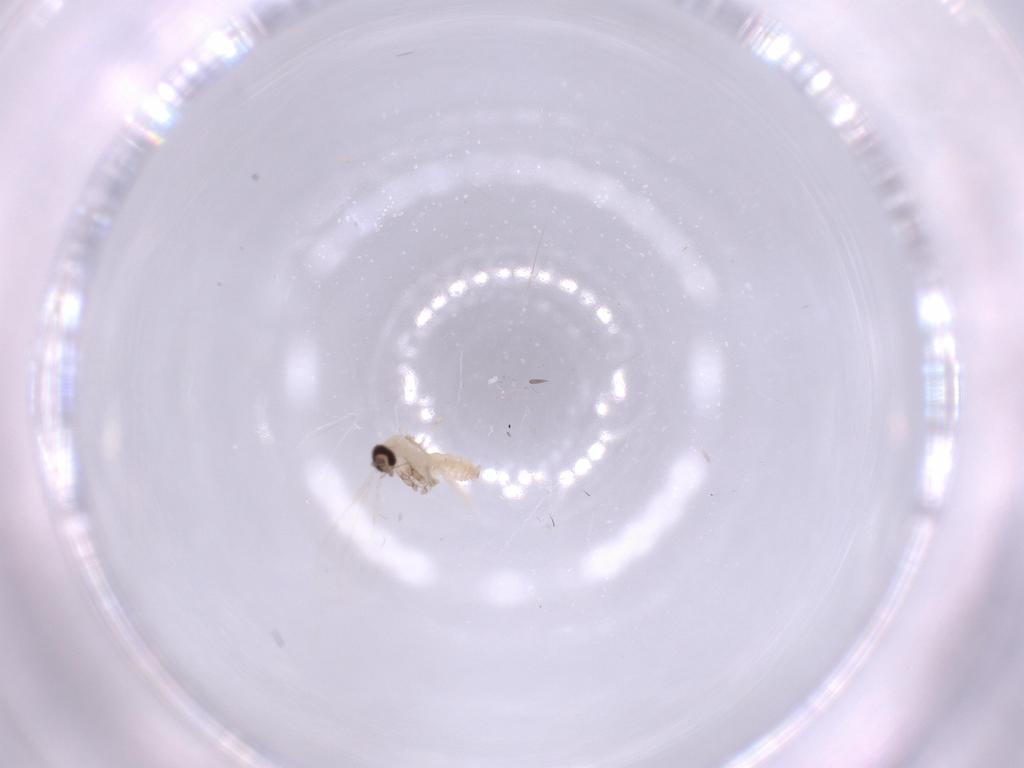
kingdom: Animalia
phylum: Arthropoda
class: Insecta
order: Diptera
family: Cecidomyiidae
